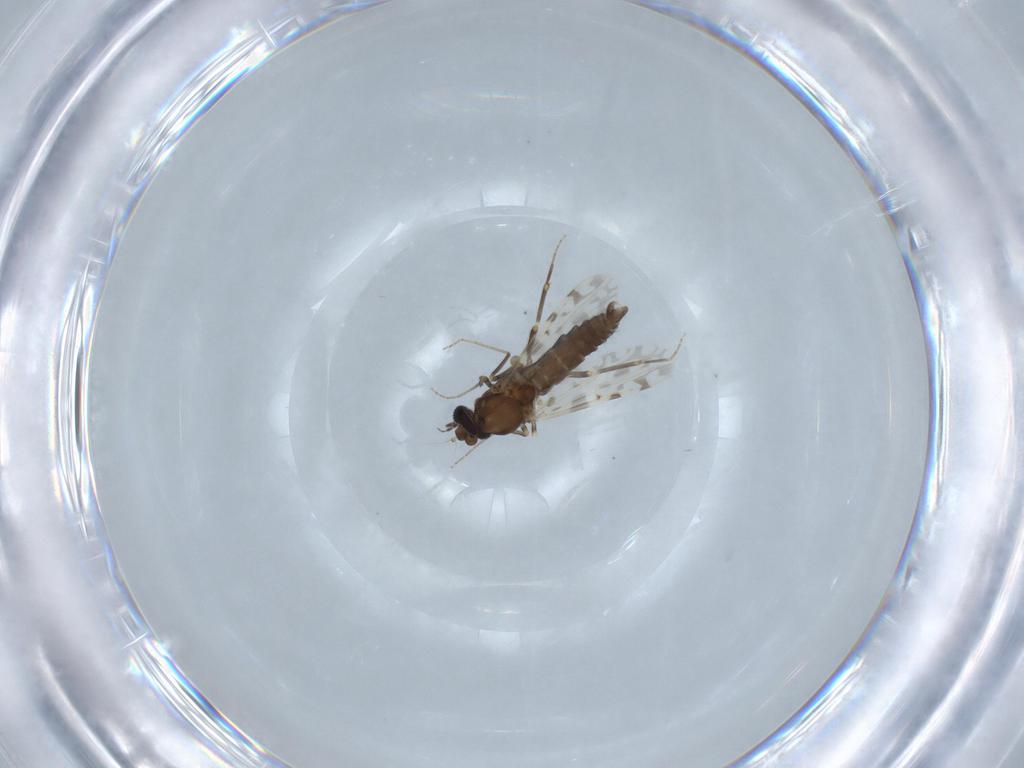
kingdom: Animalia
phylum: Arthropoda
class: Insecta
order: Diptera
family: Ceratopogonidae
